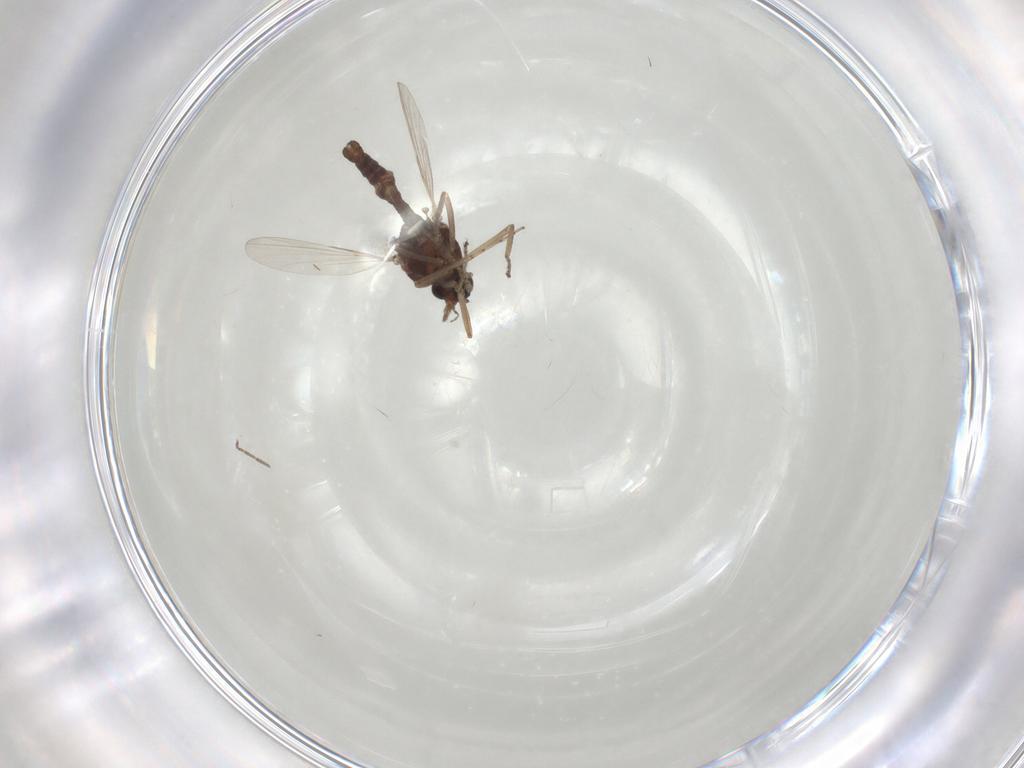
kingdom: Animalia
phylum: Arthropoda
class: Insecta
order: Diptera
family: Ceratopogonidae
